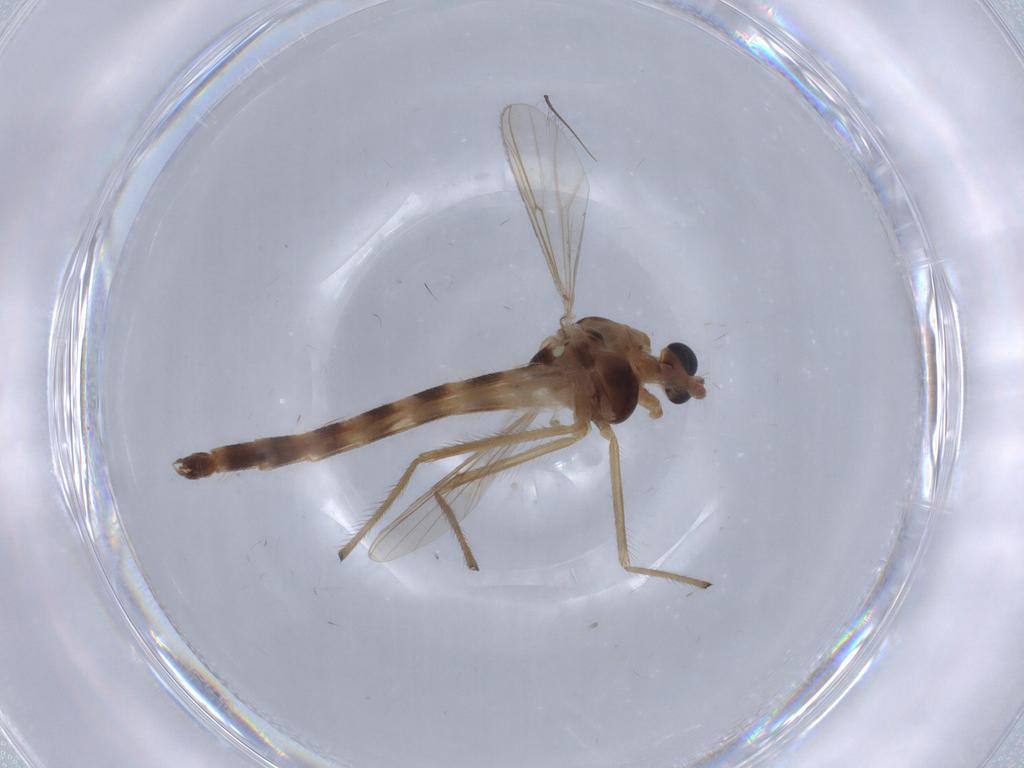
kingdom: Animalia
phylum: Arthropoda
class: Insecta
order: Diptera
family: Chironomidae
